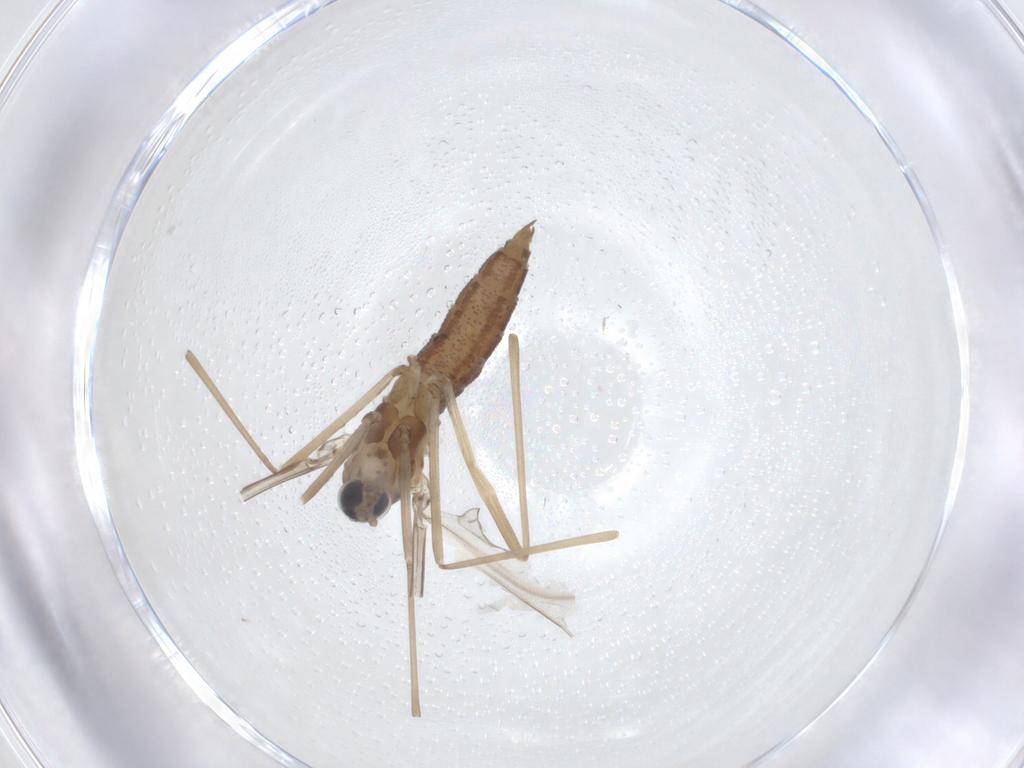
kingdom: Animalia
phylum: Arthropoda
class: Insecta
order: Diptera
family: Cecidomyiidae
